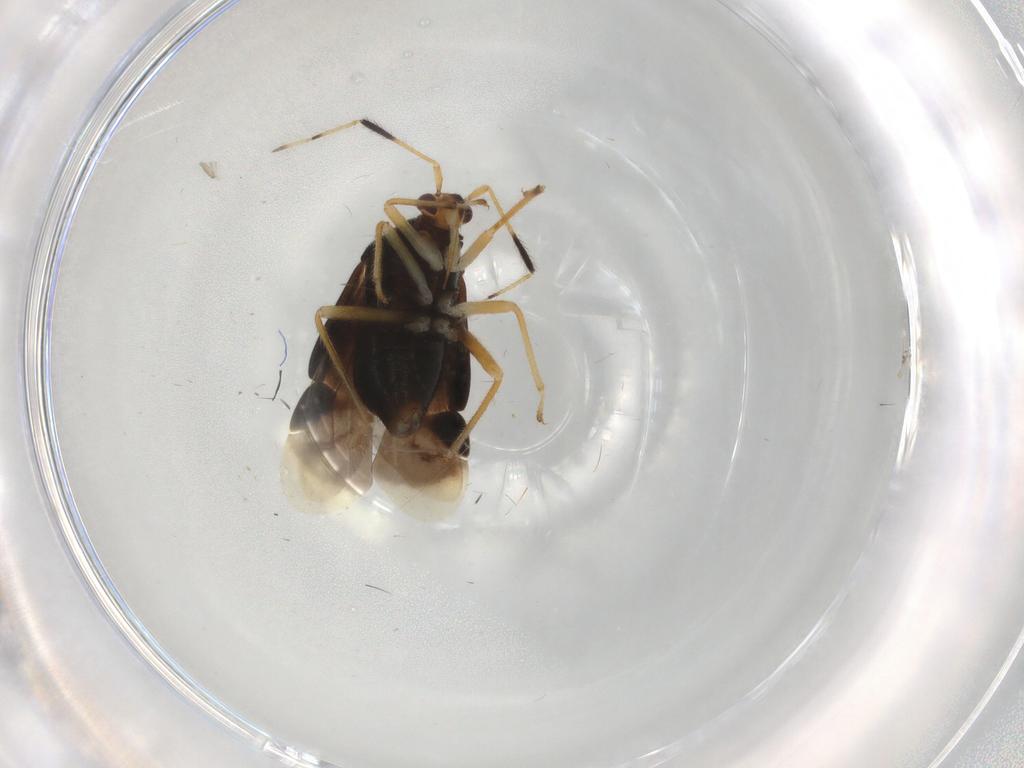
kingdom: Animalia
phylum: Arthropoda
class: Insecta
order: Hemiptera
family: Miridae
